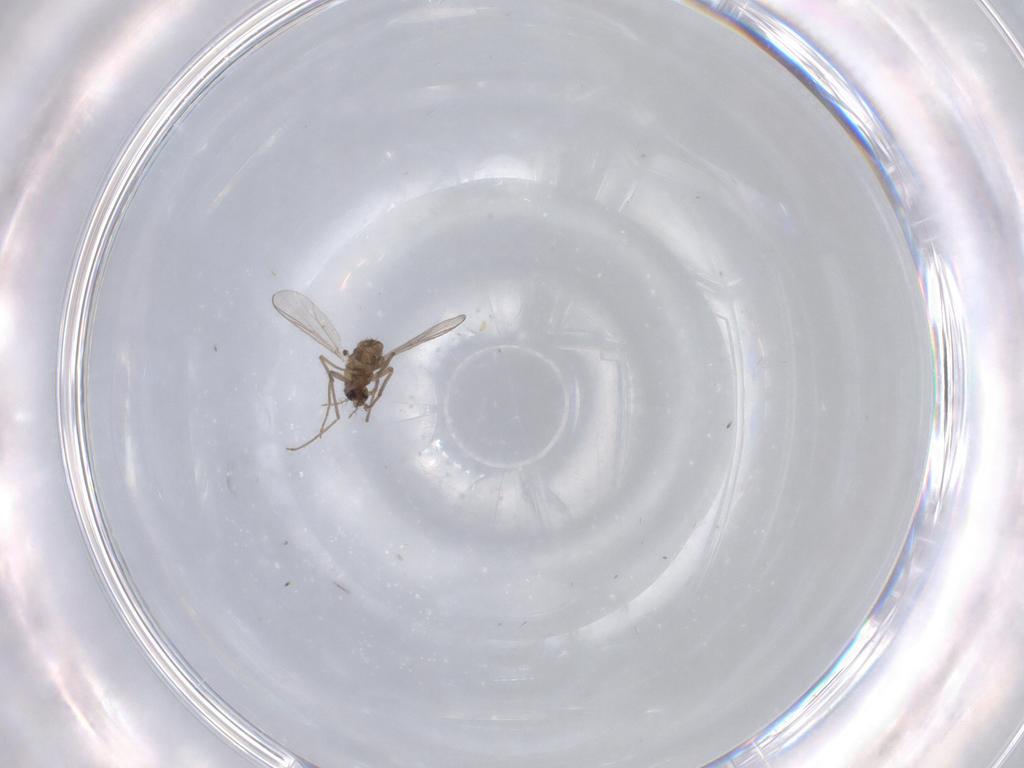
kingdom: Animalia
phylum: Arthropoda
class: Insecta
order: Diptera
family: Chironomidae
